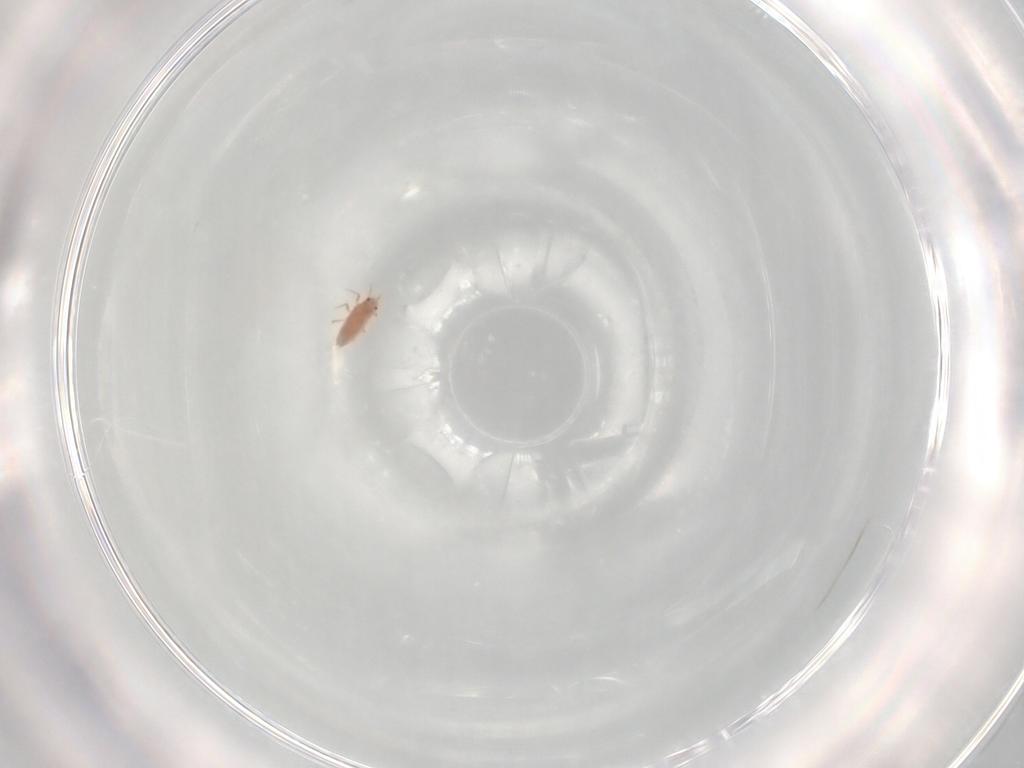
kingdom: Animalia
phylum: Arthropoda
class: Insecta
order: Hemiptera
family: Coccoidea_incertae_sedis
